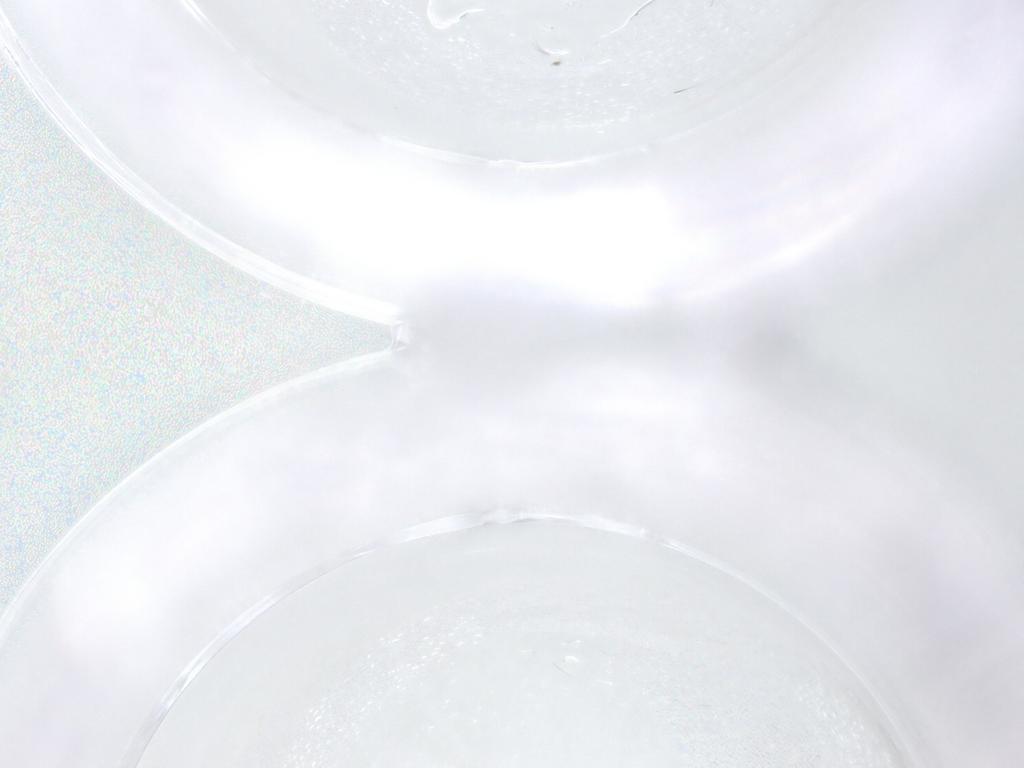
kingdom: Animalia
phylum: Arthropoda
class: Insecta
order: Diptera
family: Ceratopogonidae
